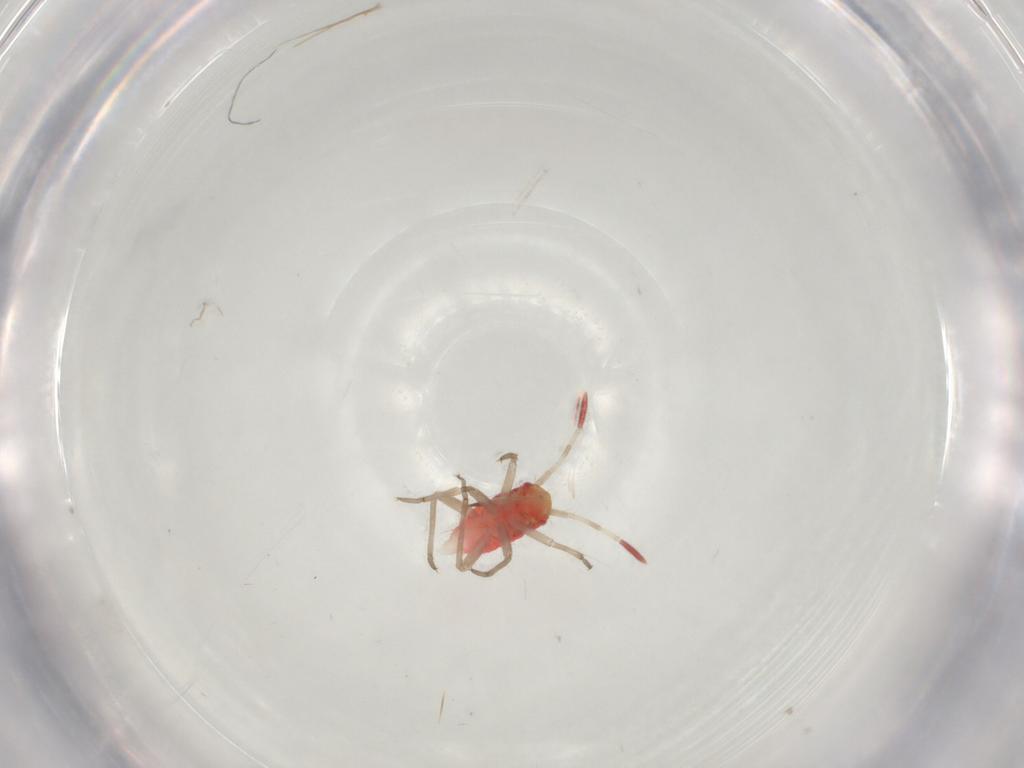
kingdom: Animalia
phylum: Arthropoda
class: Insecta
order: Hemiptera
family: Miridae
